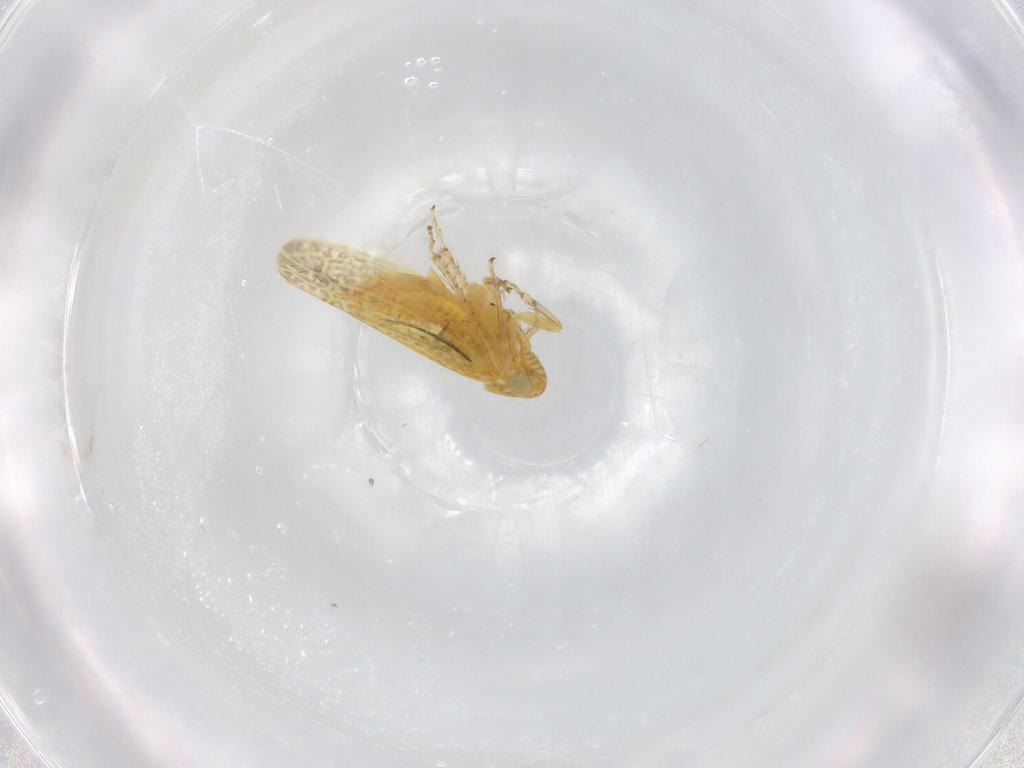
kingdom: Animalia
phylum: Arthropoda
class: Insecta
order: Hemiptera
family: Cicadellidae
